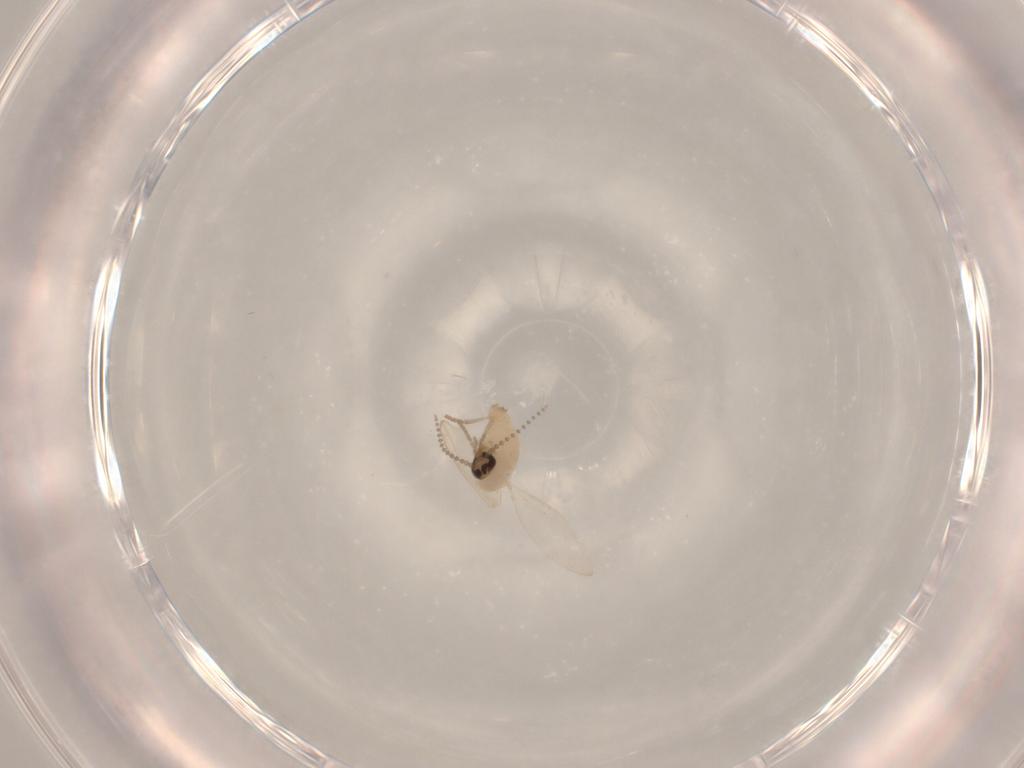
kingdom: Animalia
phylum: Arthropoda
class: Insecta
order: Diptera
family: Psychodidae
